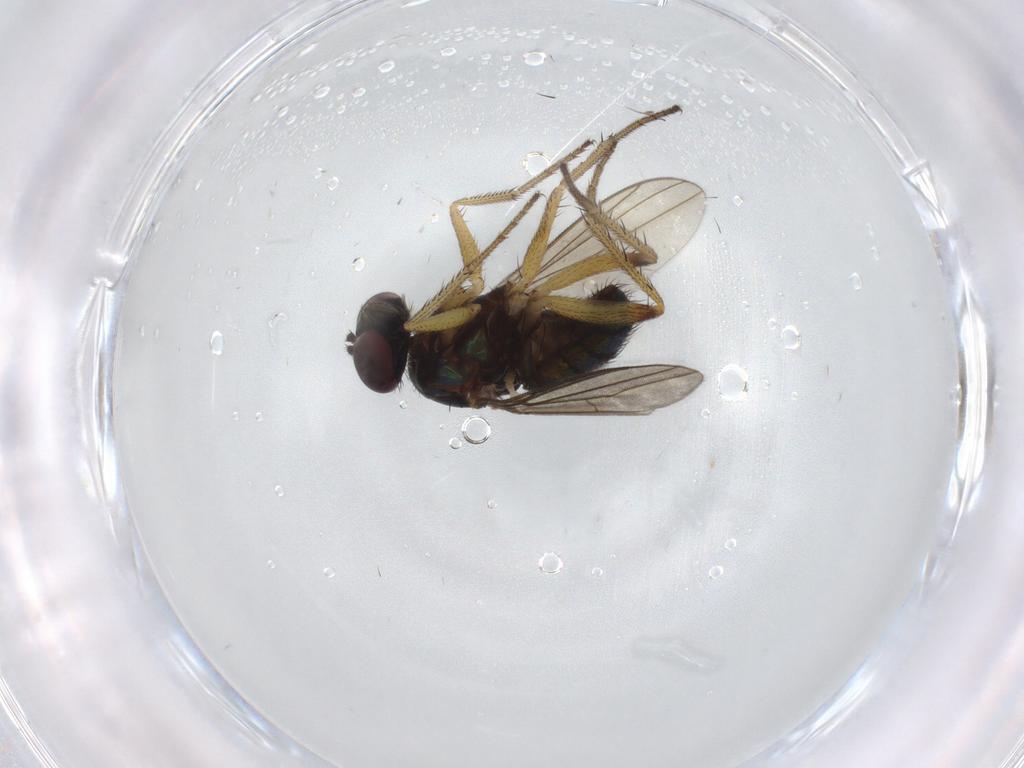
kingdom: Animalia
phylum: Arthropoda
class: Insecta
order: Diptera
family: Dolichopodidae
